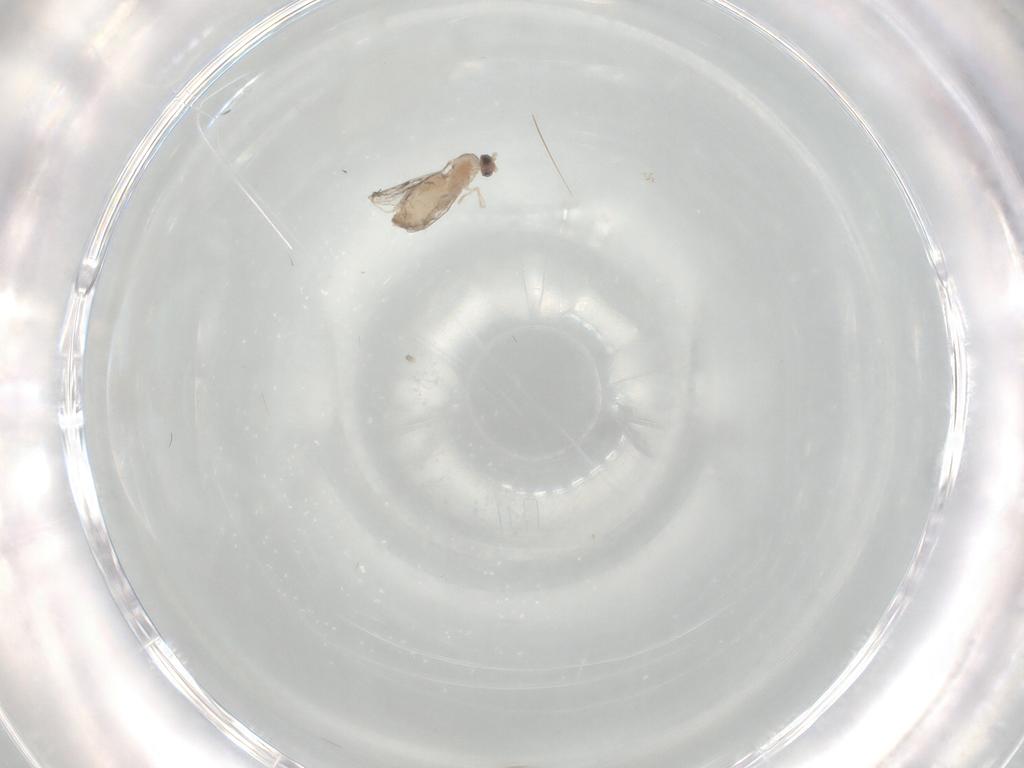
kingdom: Animalia
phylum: Arthropoda
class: Insecta
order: Diptera
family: Cecidomyiidae
